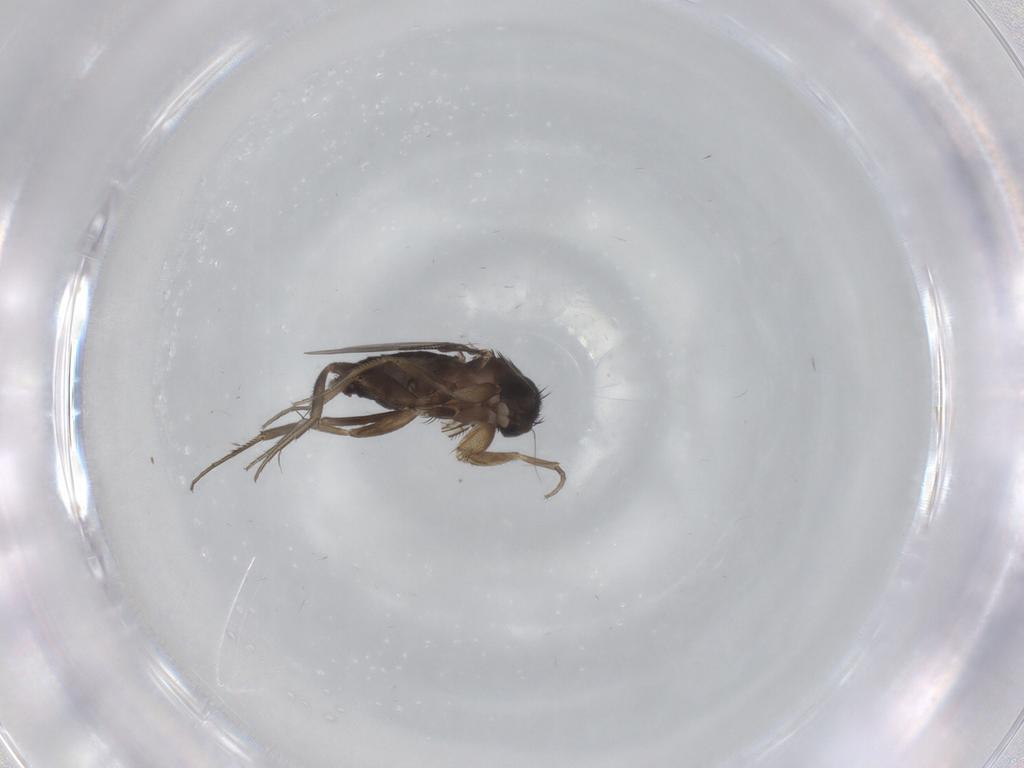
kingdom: Animalia
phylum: Arthropoda
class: Insecta
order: Diptera
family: Phoridae
